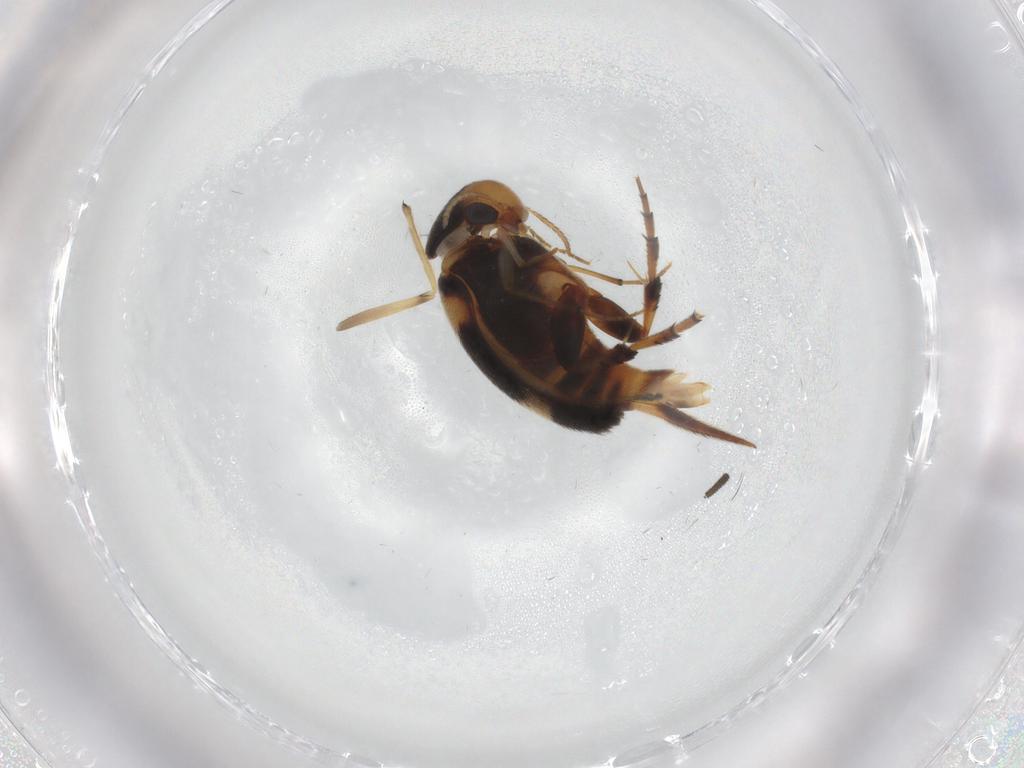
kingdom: Animalia
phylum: Arthropoda
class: Insecta
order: Coleoptera
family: Mordellidae
